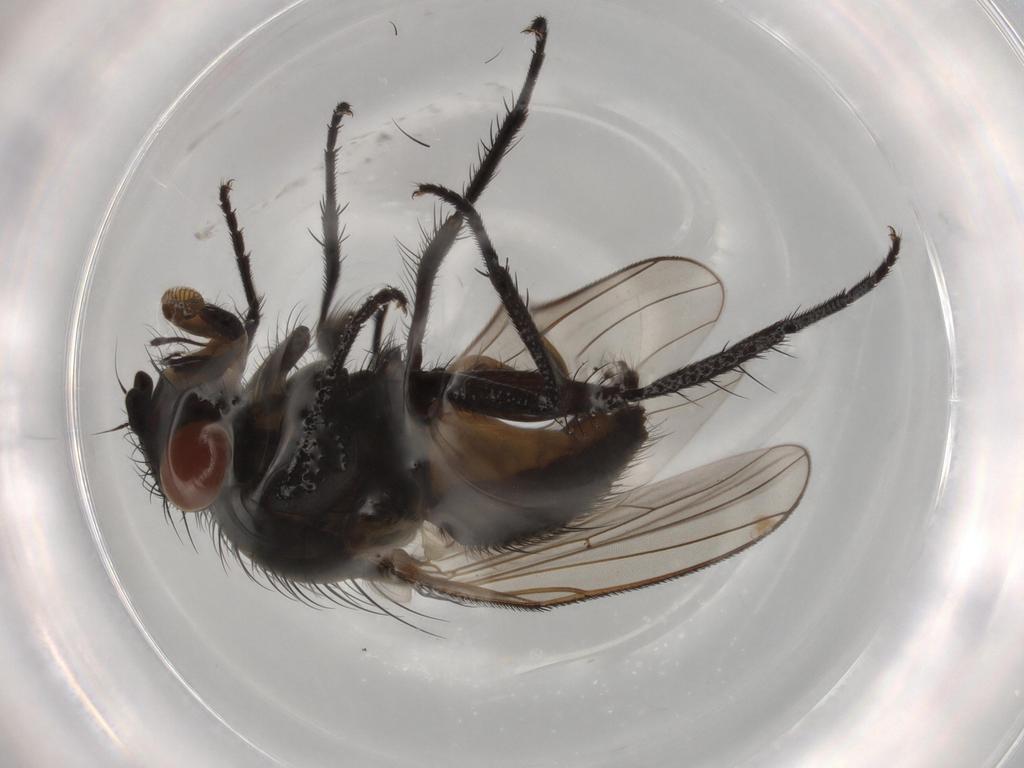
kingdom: Animalia
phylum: Arthropoda
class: Insecta
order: Diptera
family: Anthomyiidae
